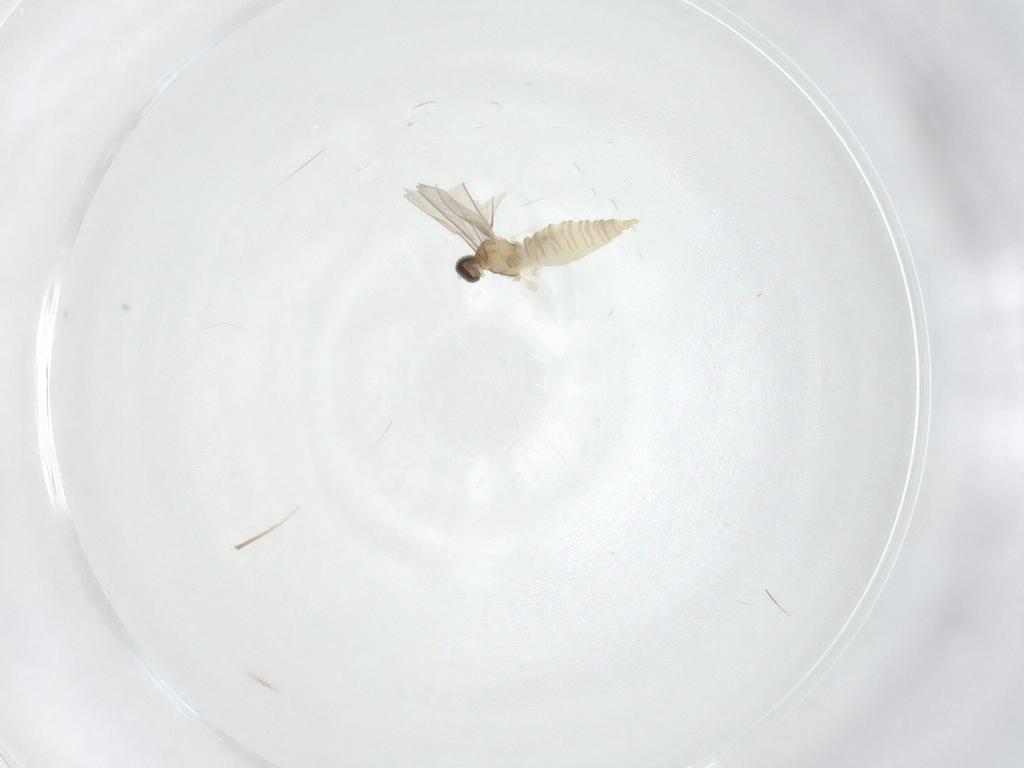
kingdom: Animalia
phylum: Arthropoda
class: Insecta
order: Diptera
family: Cecidomyiidae
